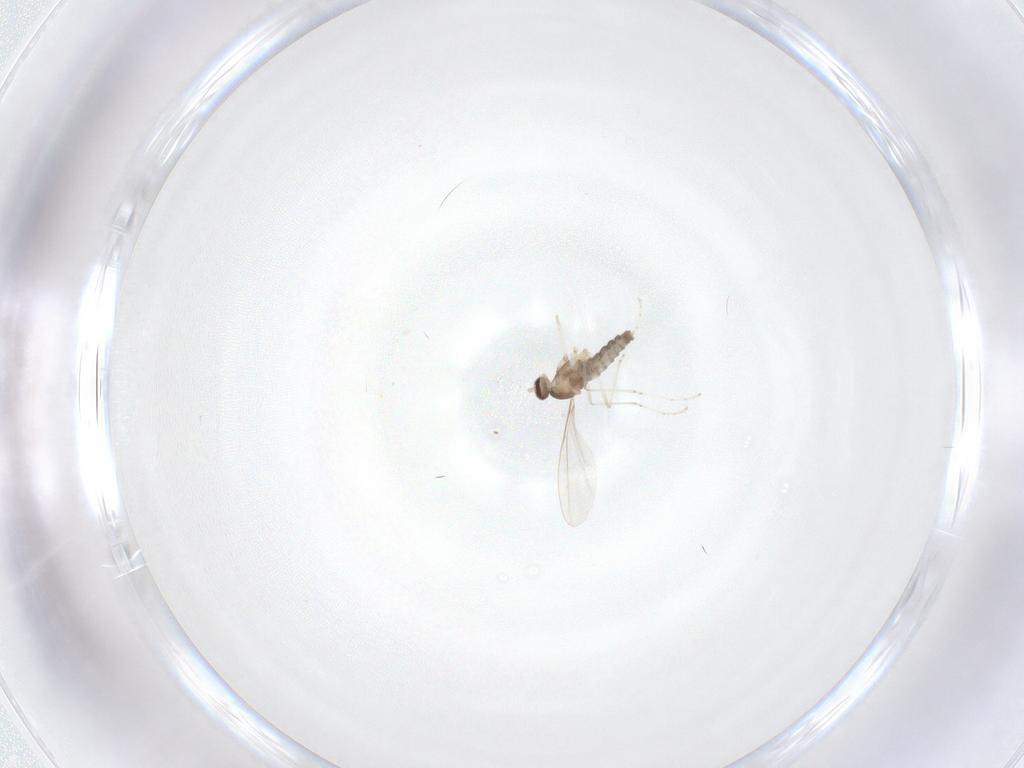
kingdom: Animalia
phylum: Arthropoda
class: Insecta
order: Diptera
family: Cecidomyiidae
